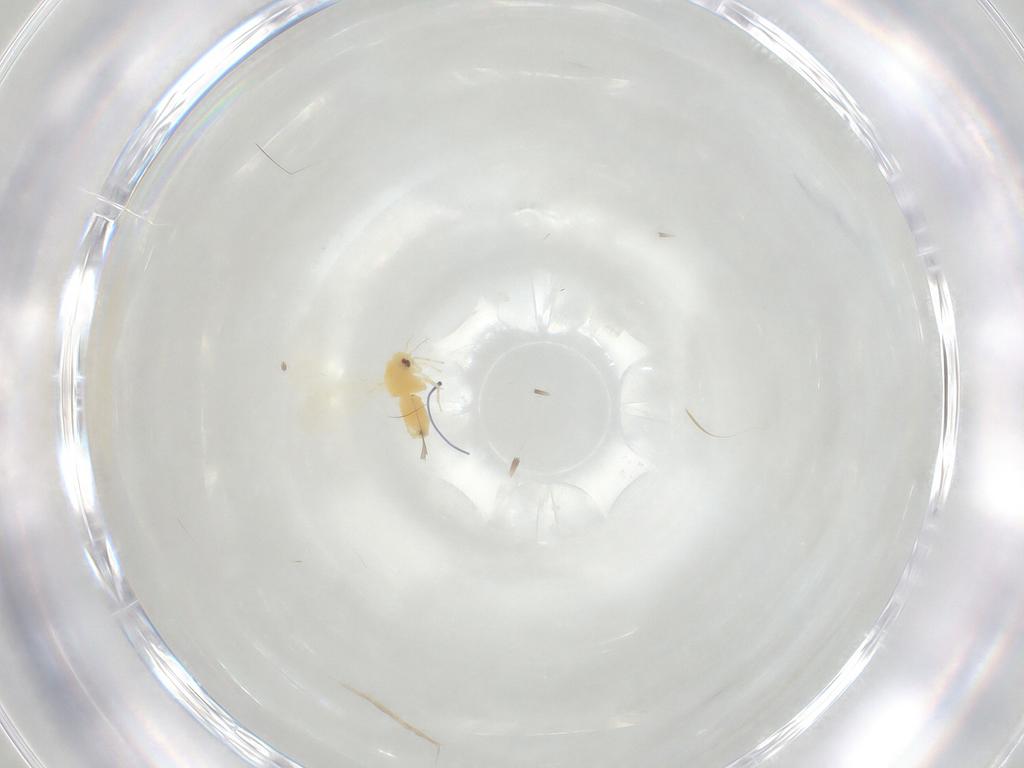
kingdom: Animalia
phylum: Arthropoda
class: Insecta
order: Hemiptera
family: Aleyrodidae
